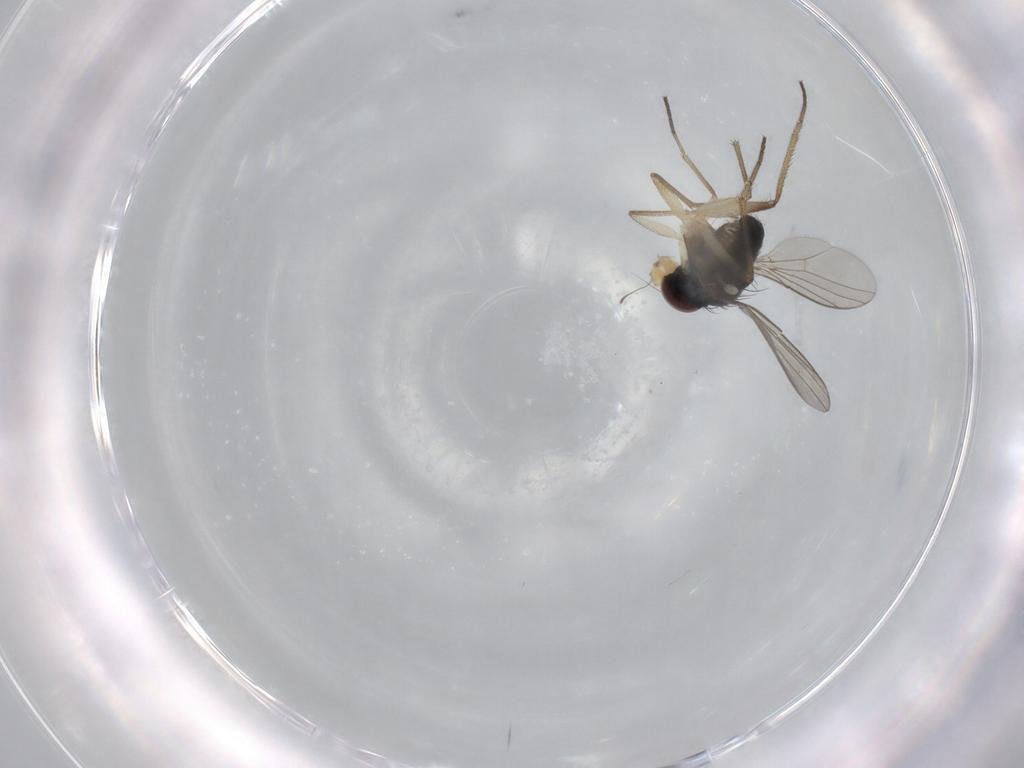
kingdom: Animalia
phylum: Arthropoda
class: Insecta
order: Diptera
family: Dolichopodidae
